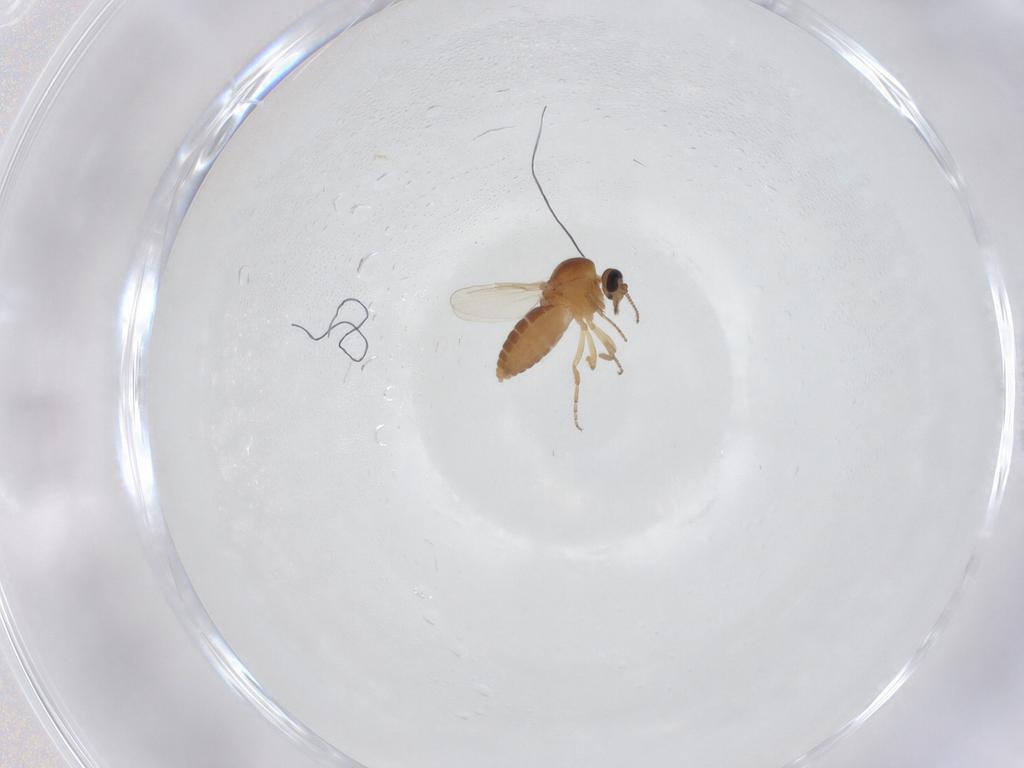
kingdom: Animalia
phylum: Arthropoda
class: Insecta
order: Diptera
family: Ceratopogonidae
